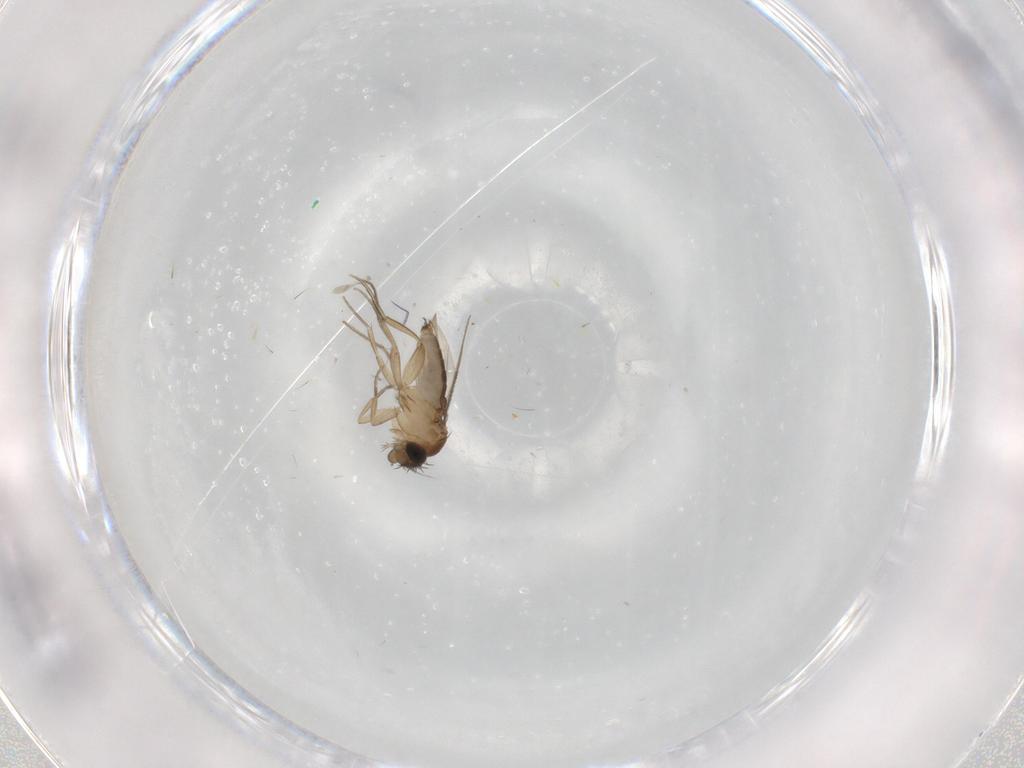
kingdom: Animalia
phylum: Arthropoda
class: Insecta
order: Diptera
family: Phoridae
